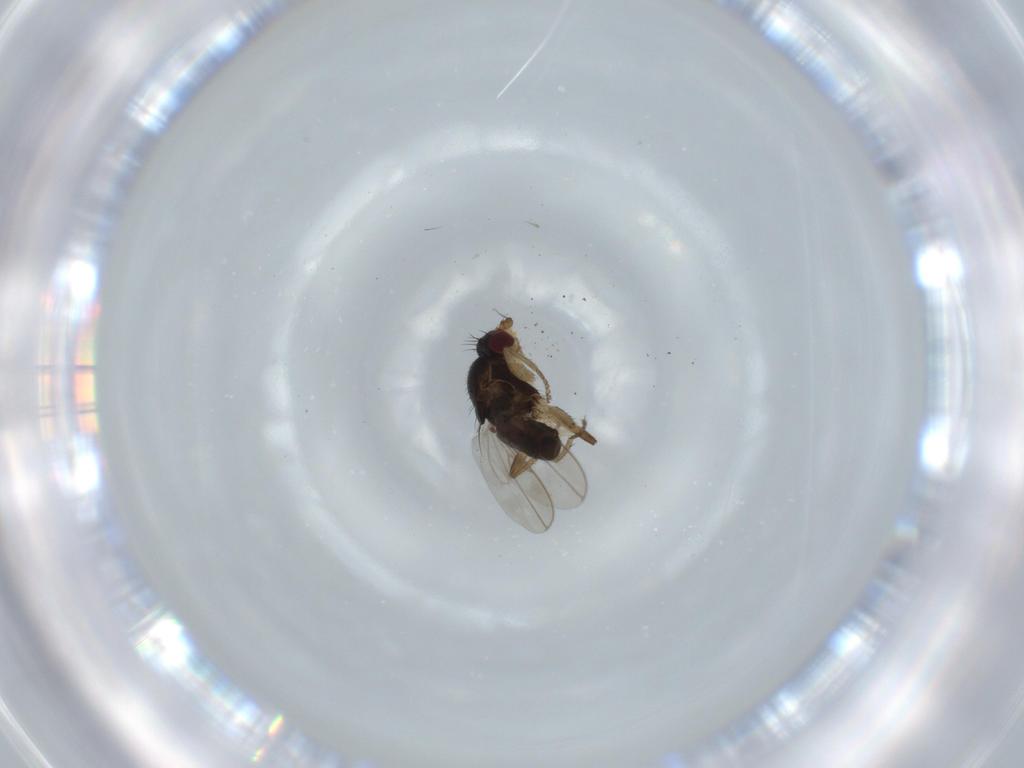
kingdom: Animalia
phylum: Arthropoda
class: Insecta
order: Diptera
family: Sphaeroceridae
